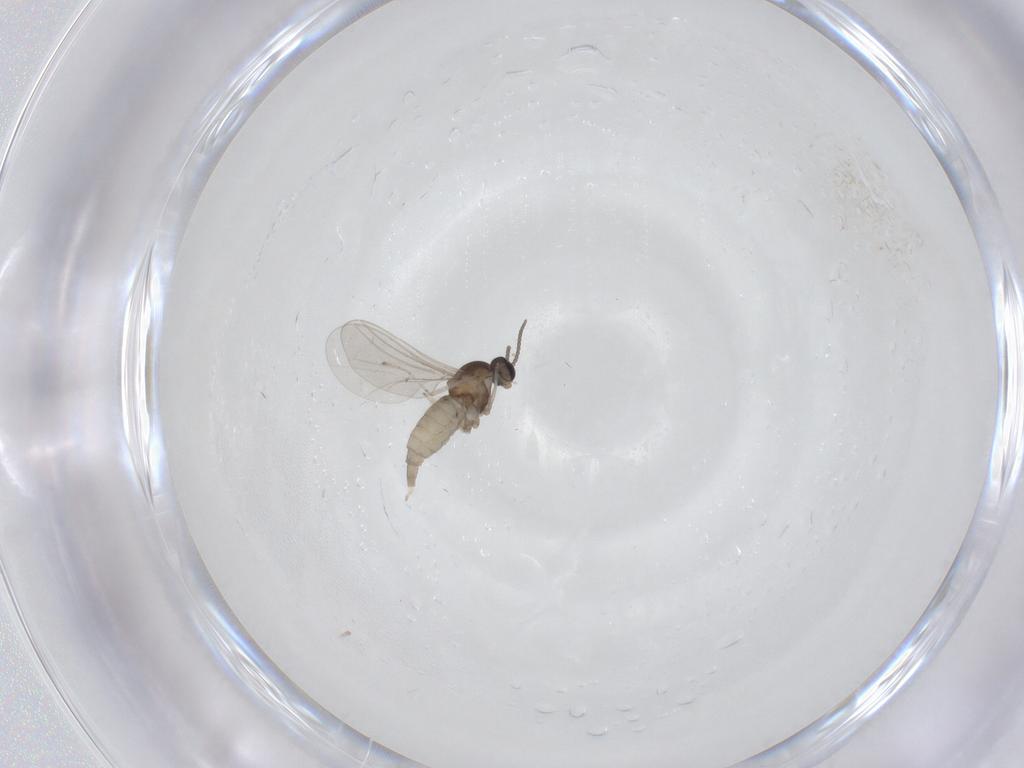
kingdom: Animalia
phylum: Arthropoda
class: Insecta
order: Diptera
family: Cecidomyiidae
